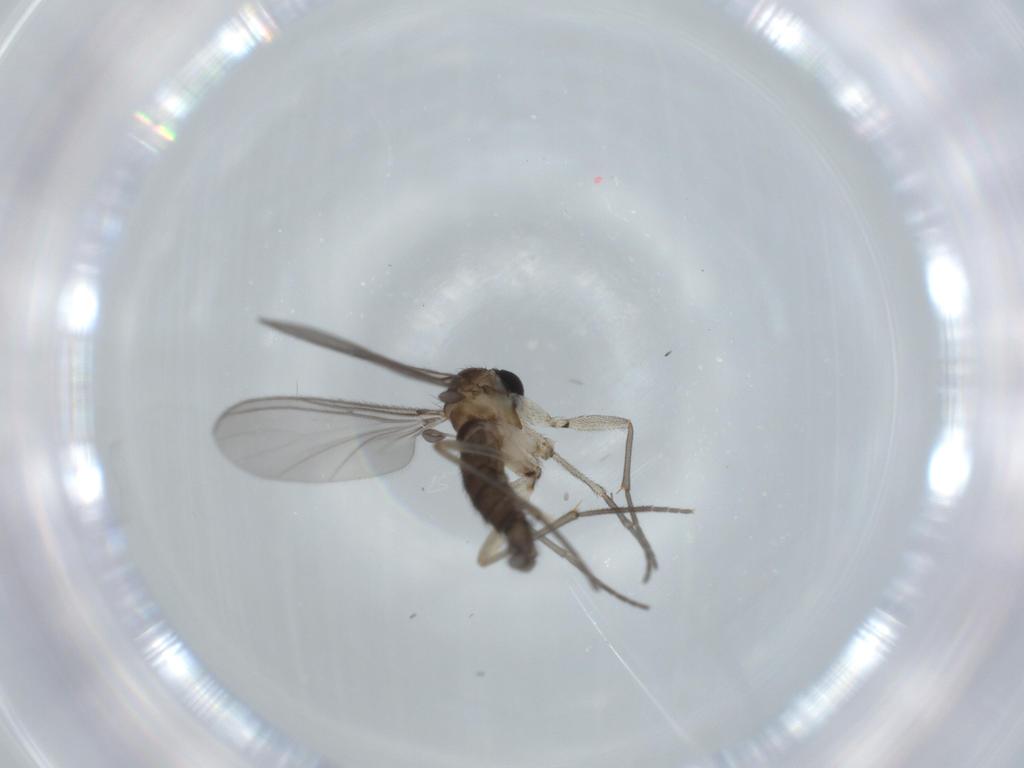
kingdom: Animalia
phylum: Arthropoda
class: Insecta
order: Diptera
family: Sciaridae
